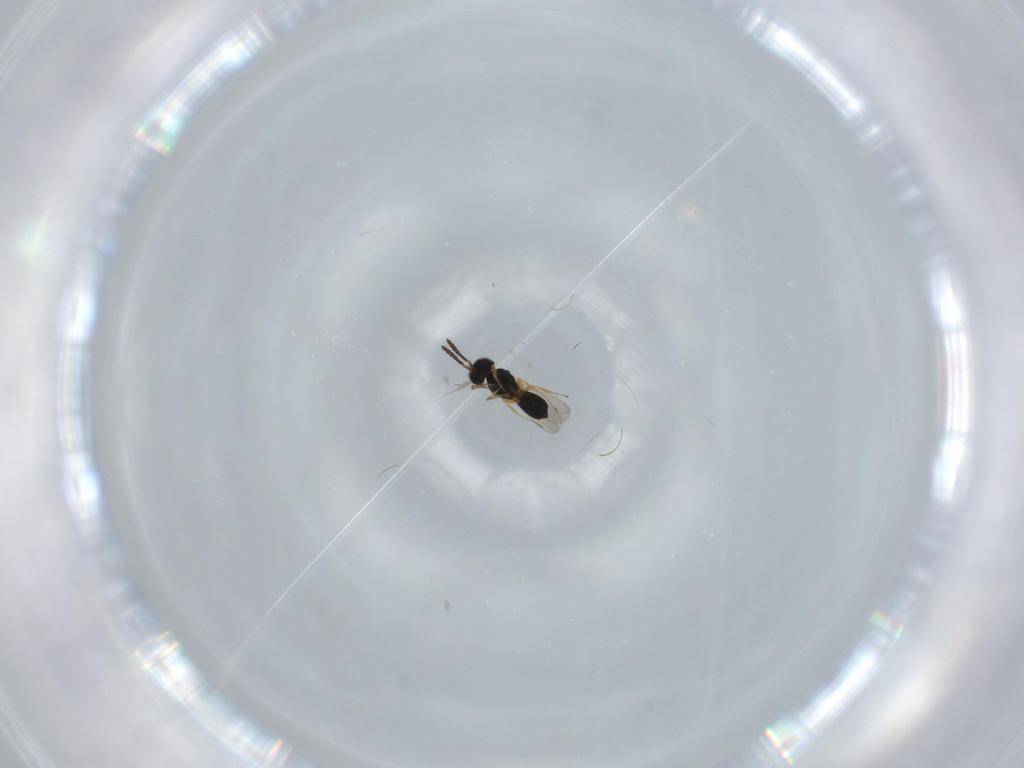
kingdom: Animalia
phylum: Arthropoda
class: Insecta
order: Hymenoptera
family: Scelionidae
